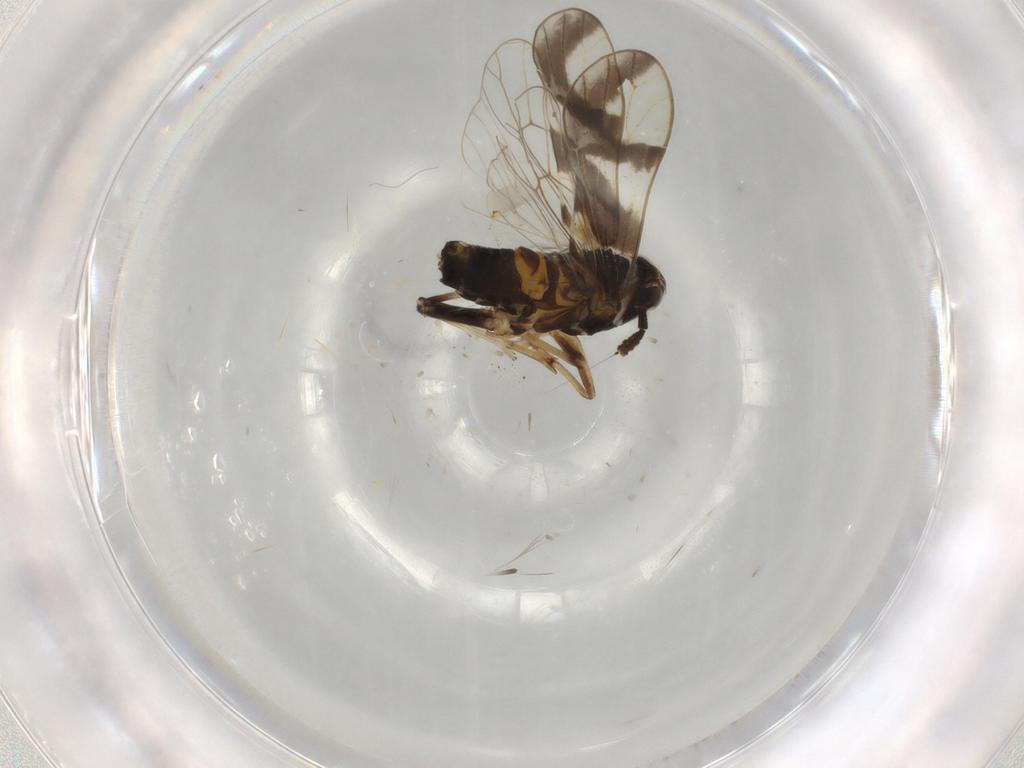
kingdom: Animalia
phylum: Arthropoda
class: Insecta
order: Hemiptera
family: Delphacidae
